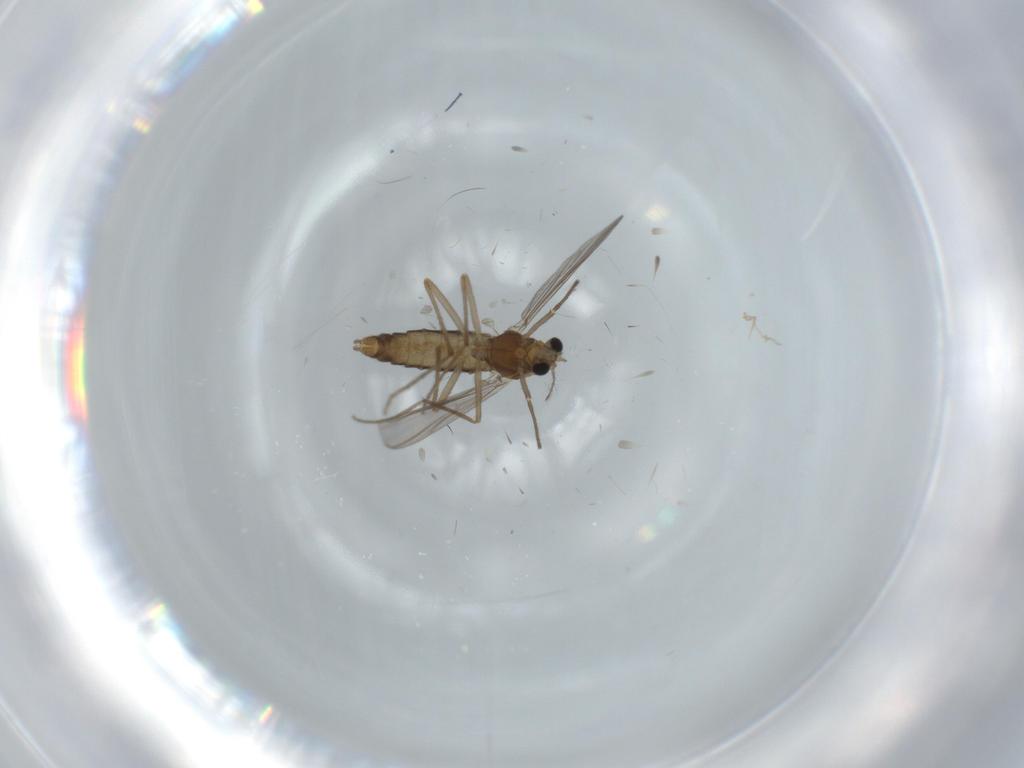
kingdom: Animalia
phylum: Arthropoda
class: Insecta
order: Diptera
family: Chironomidae
